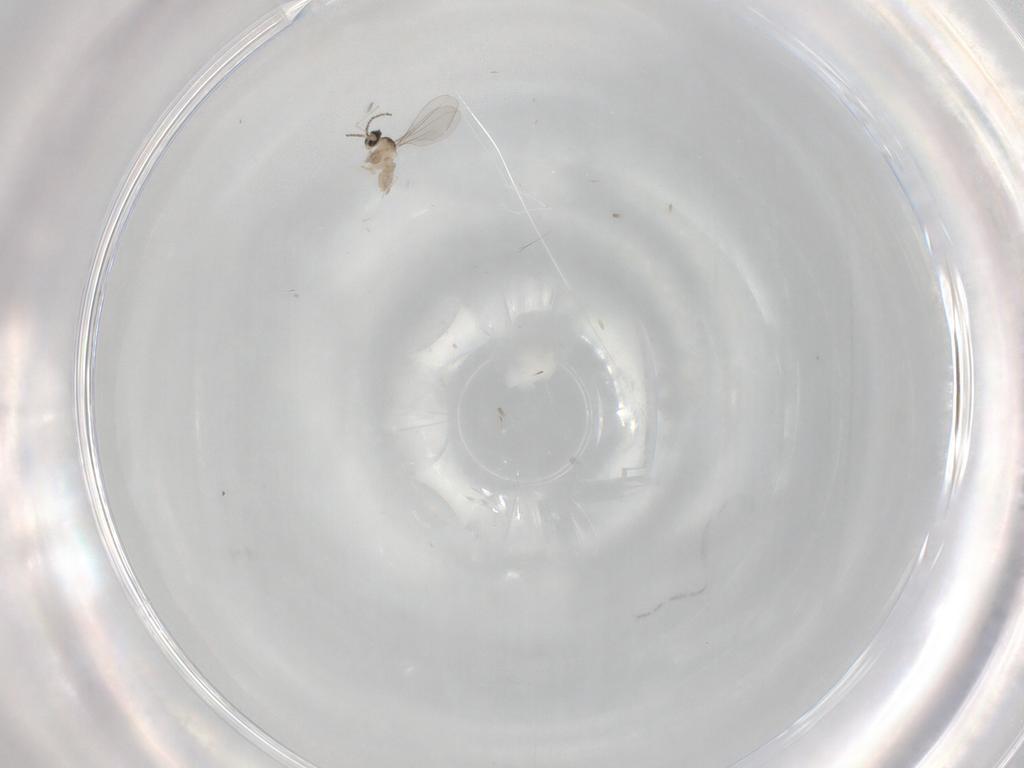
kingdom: Animalia
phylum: Arthropoda
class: Insecta
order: Diptera
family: Cecidomyiidae
